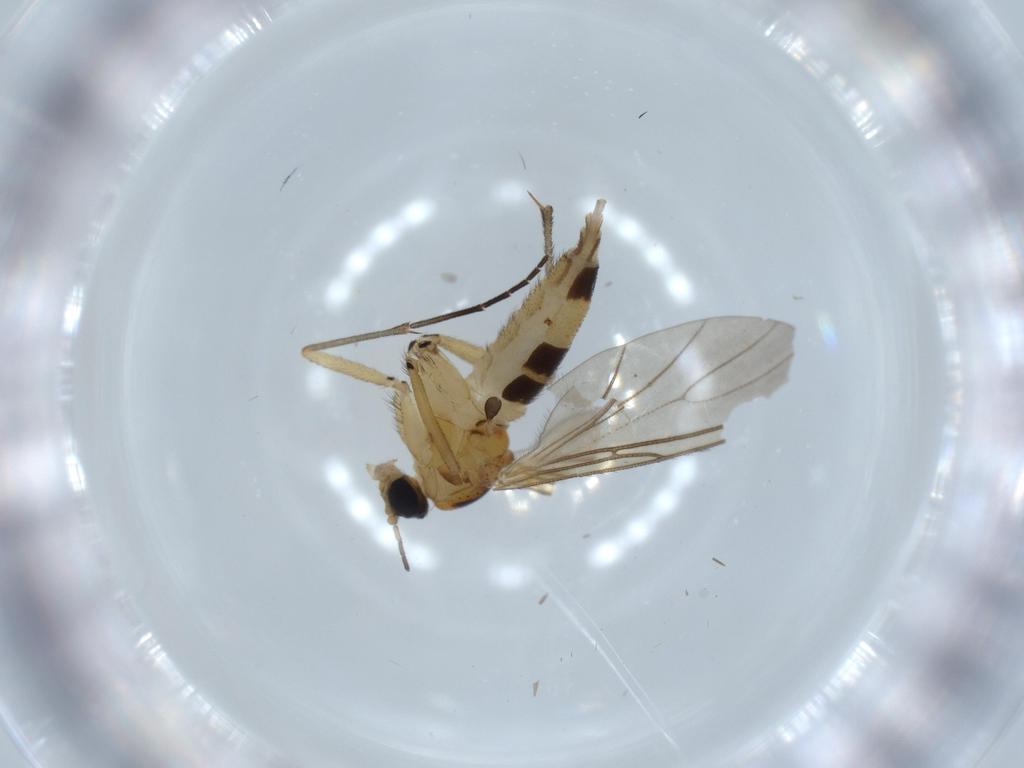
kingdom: Animalia
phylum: Arthropoda
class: Insecta
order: Diptera
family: Sciaridae
